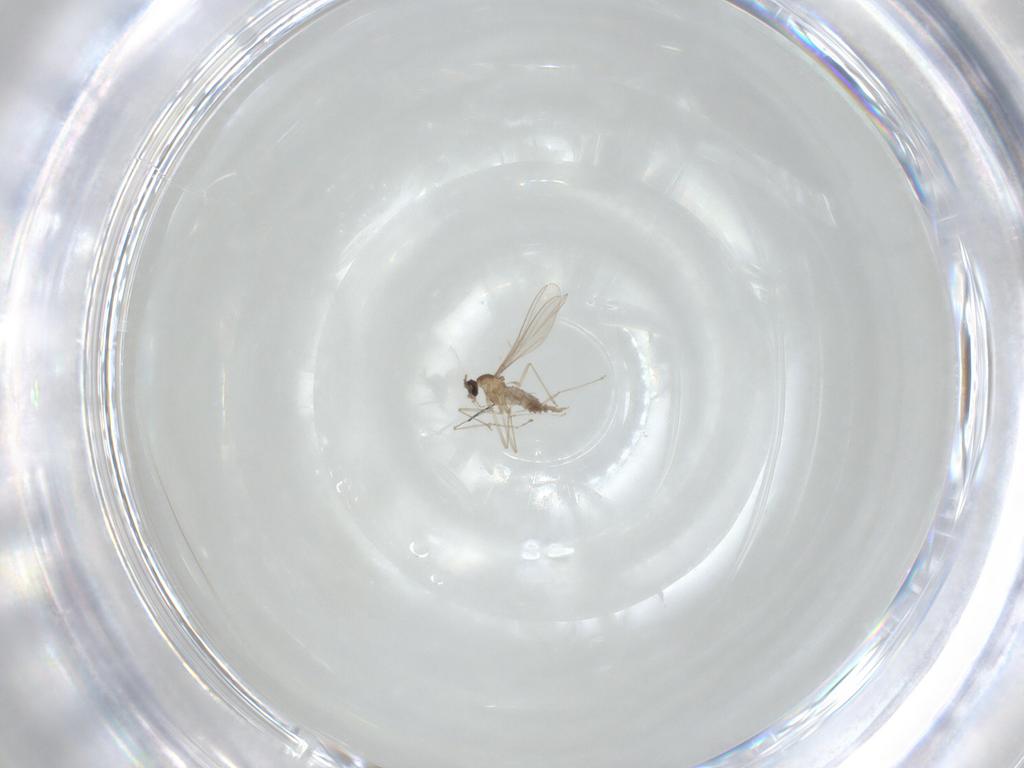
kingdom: Animalia
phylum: Arthropoda
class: Insecta
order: Diptera
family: Cecidomyiidae
